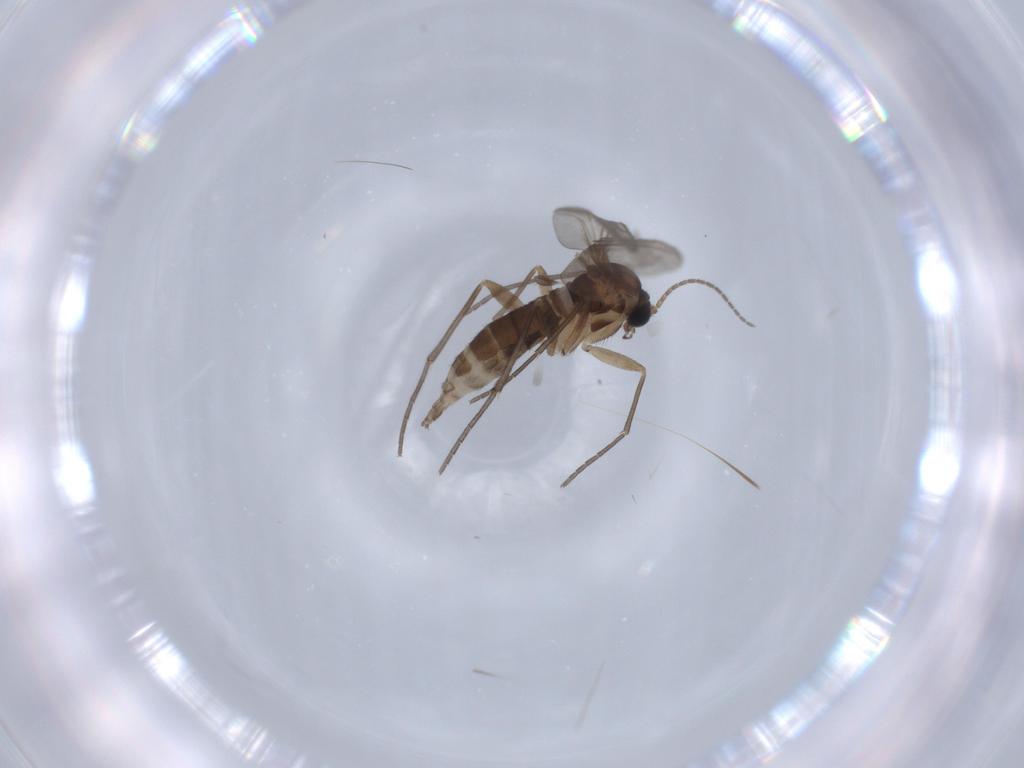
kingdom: Animalia
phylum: Arthropoda
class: Insecta
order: Diptera
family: Sciaridae
